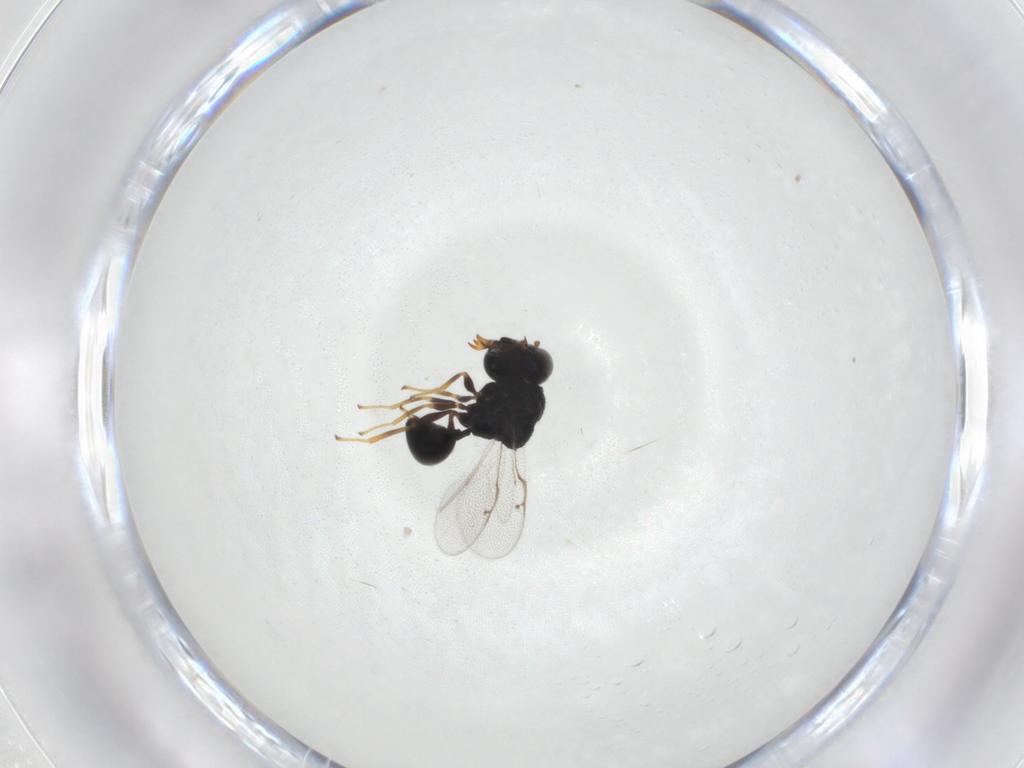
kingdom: Animalia
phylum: Arthropoda
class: Insecta
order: Hymenoptera
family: Perilampidae
